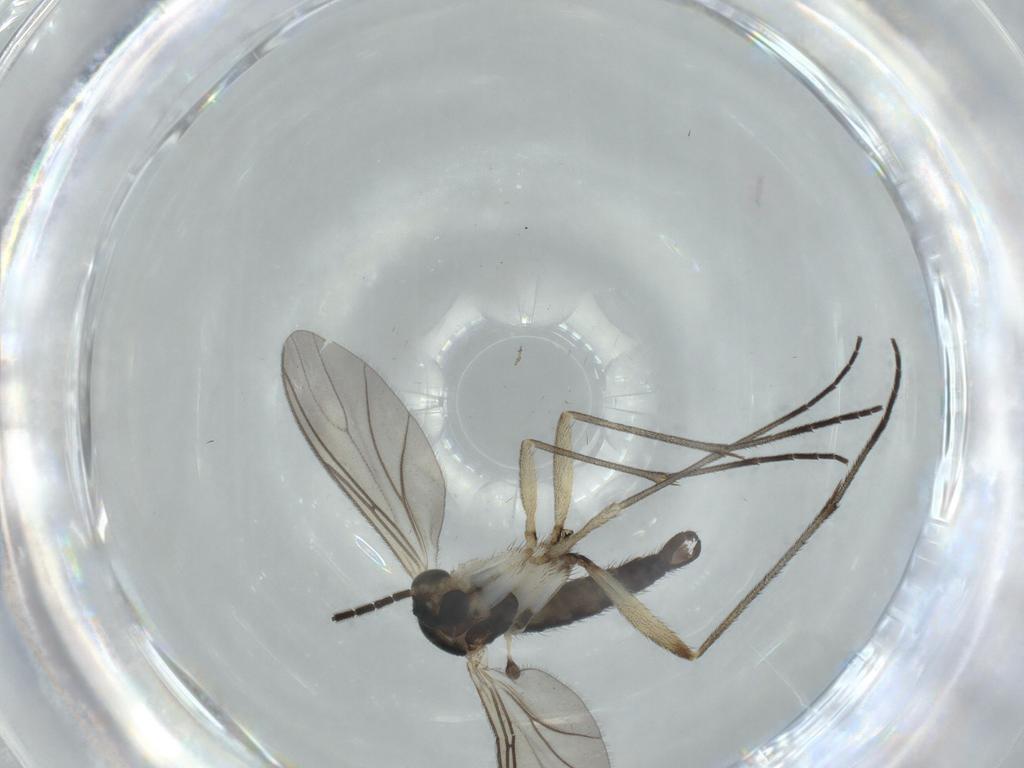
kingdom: Animalia
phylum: Arthropoda
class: Insecta
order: Diptera
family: Sciaridae
